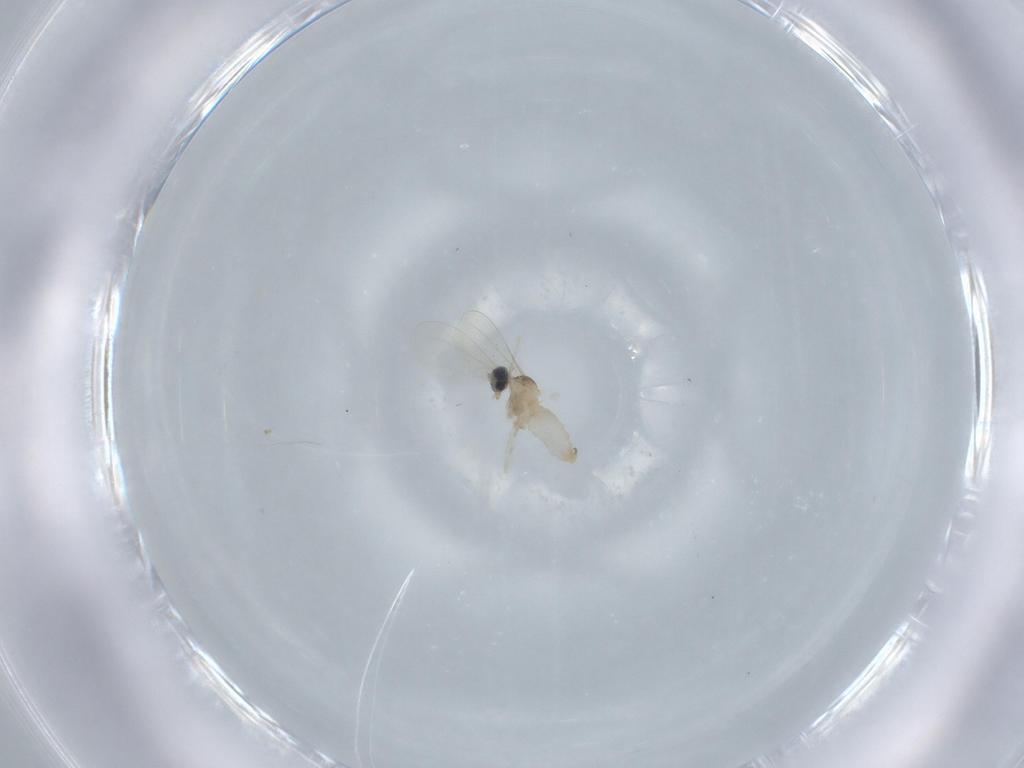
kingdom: Animalia
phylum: Arthropoda
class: Insecta
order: Diptera
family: Cecidomyiidae
